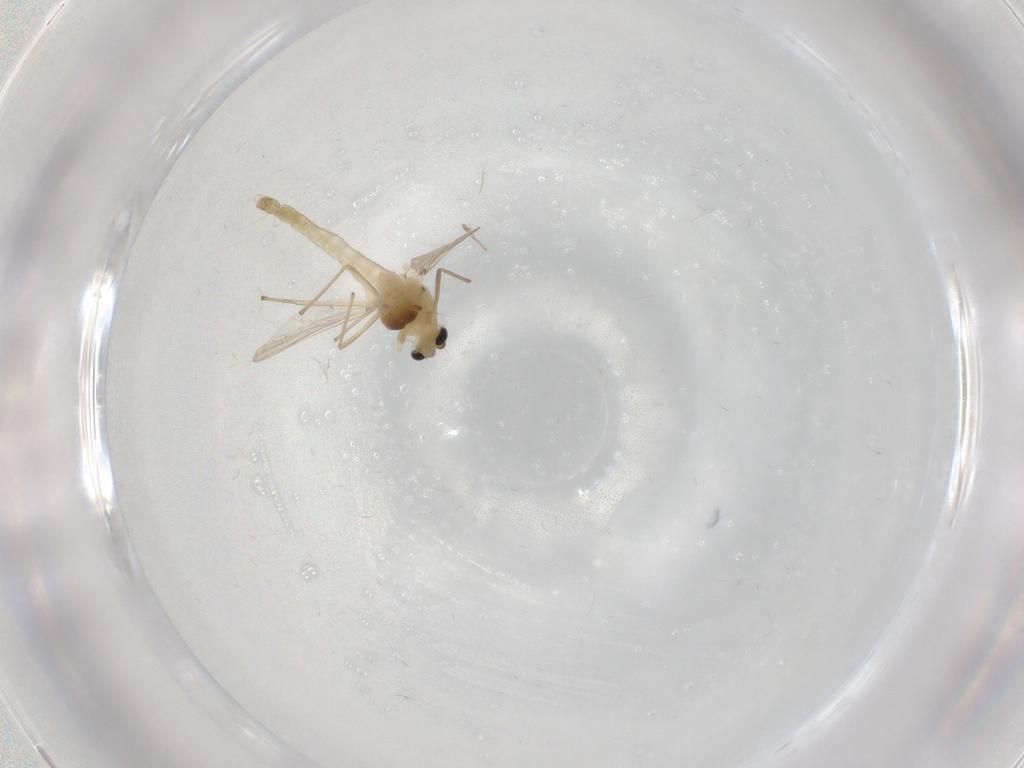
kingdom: Animalia
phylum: Arthropoda
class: Insecta
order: Diptera
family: Chironomidae
